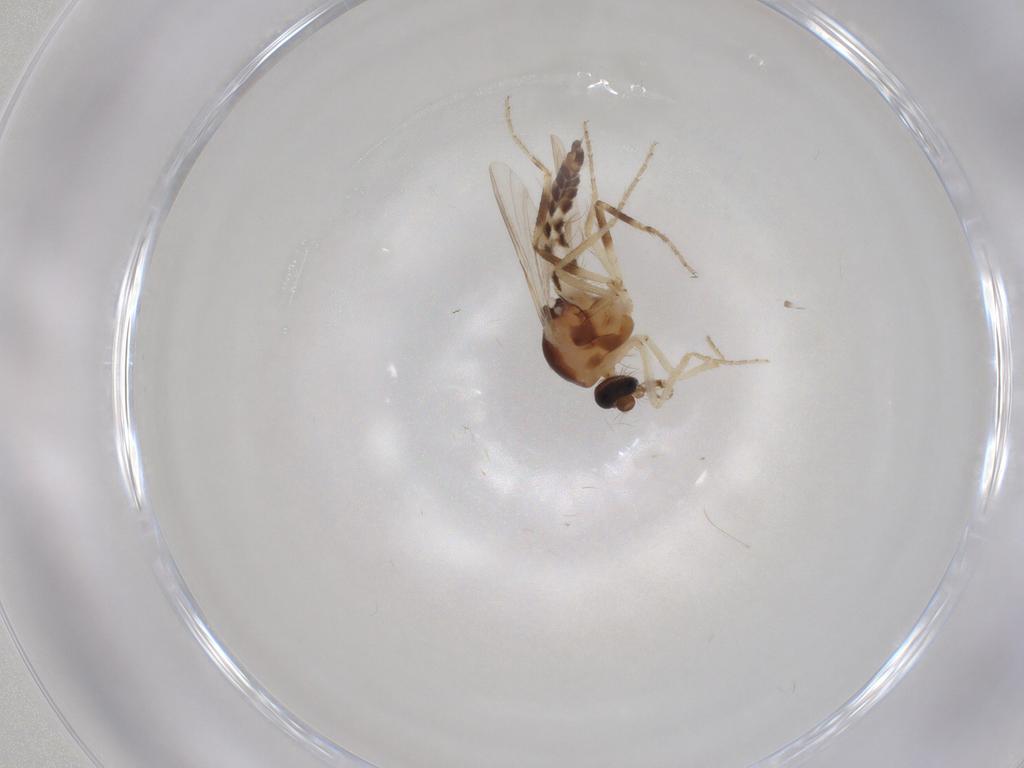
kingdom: Animalia
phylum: Arthropoda
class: Insecta
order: Diptera
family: Ceratopogonidae
